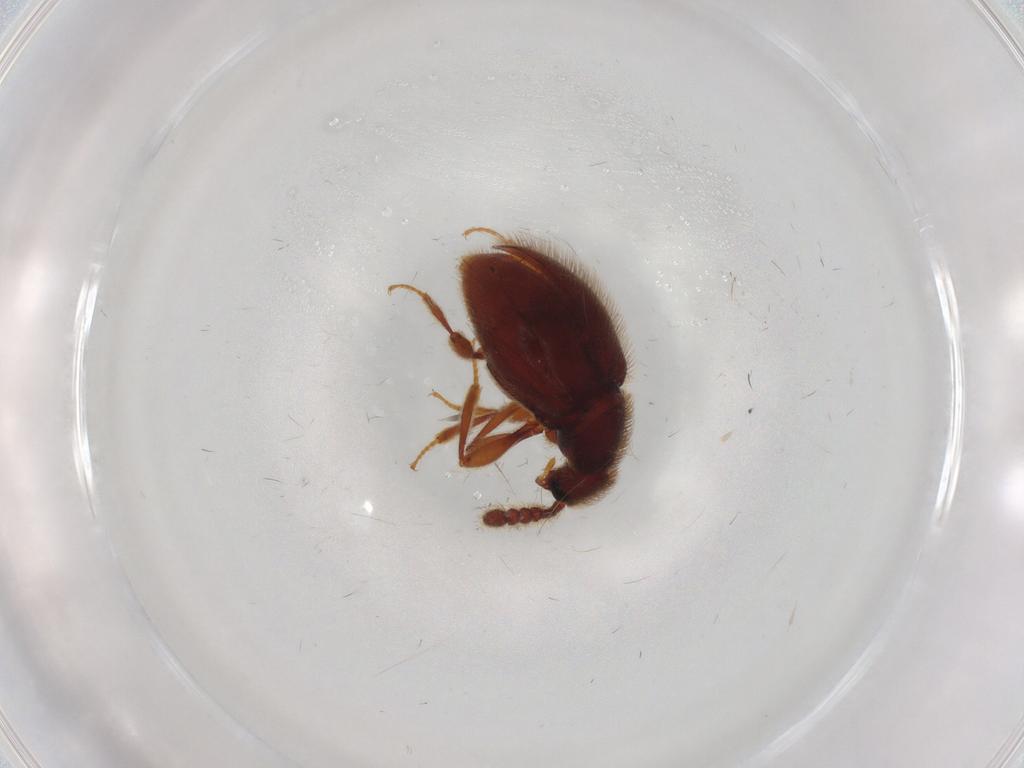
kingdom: Animalia
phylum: Arthropoda
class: Insecta
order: Coleoptera
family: Staphylinidae
